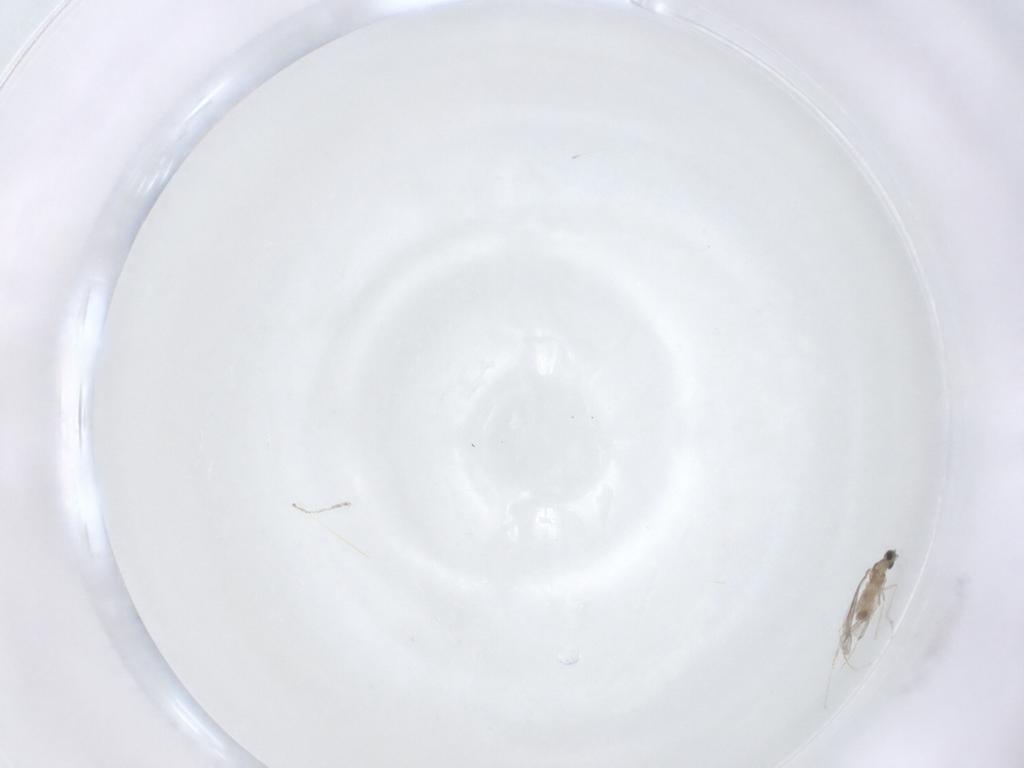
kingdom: Animalia
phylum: Arthropoda
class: Insecta
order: Diptera
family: Cecidomyiidae
